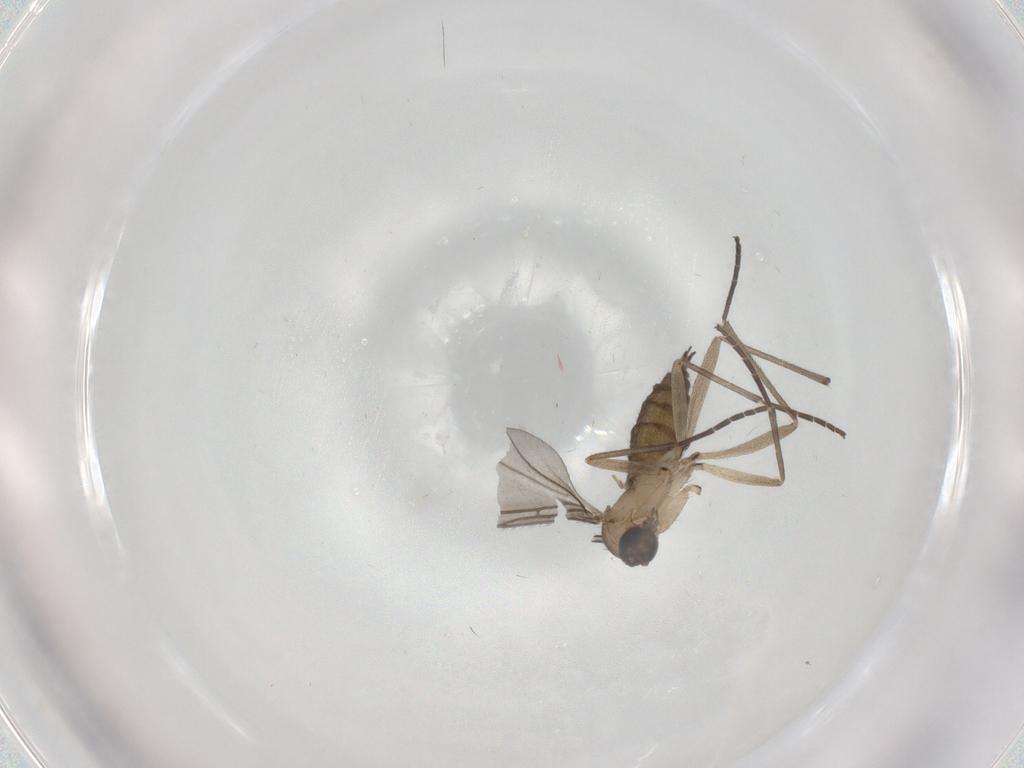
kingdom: Animalia
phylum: Arthropoda
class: Insecta
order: Diptera
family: Sciaridae
